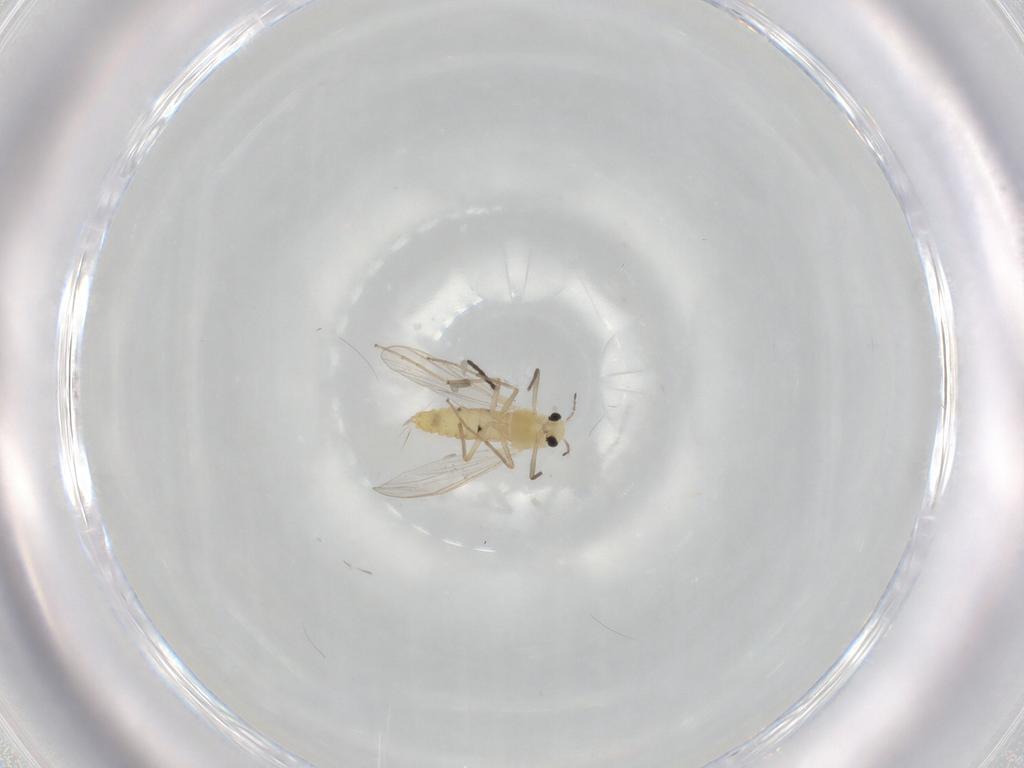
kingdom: Animalia
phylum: Arthropoda
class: Insecta
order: Diptera
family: Chironomidae
